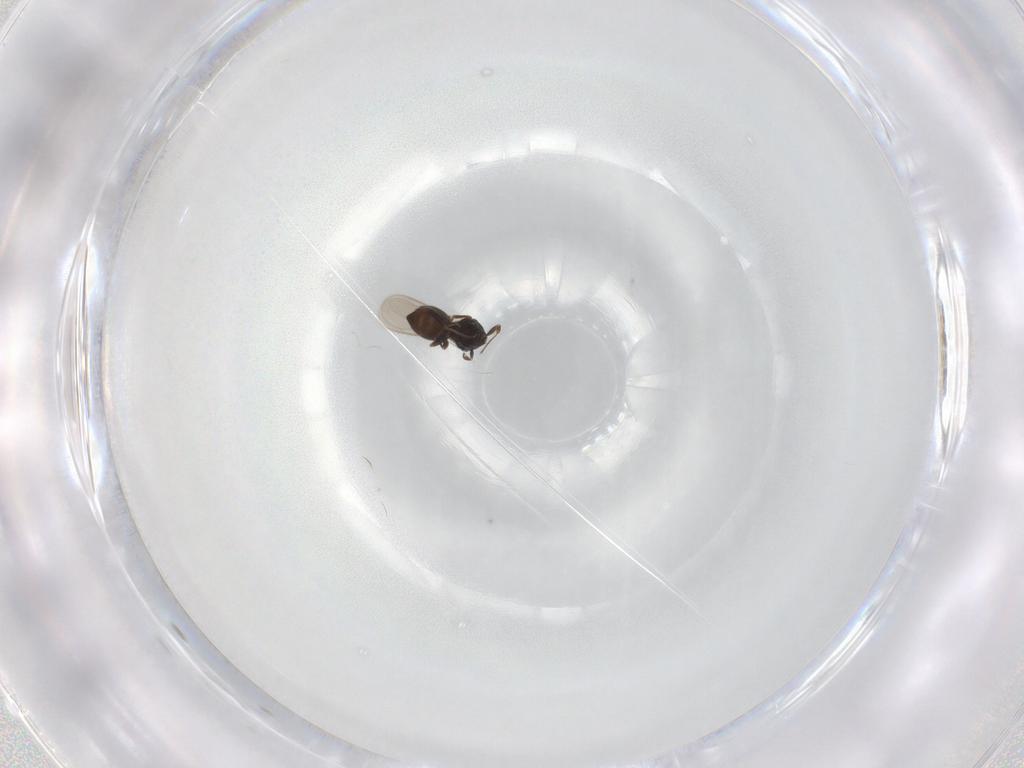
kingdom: Animalia
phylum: Arthropoda
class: Insecta
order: Hymenoptera
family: Scelionidae
